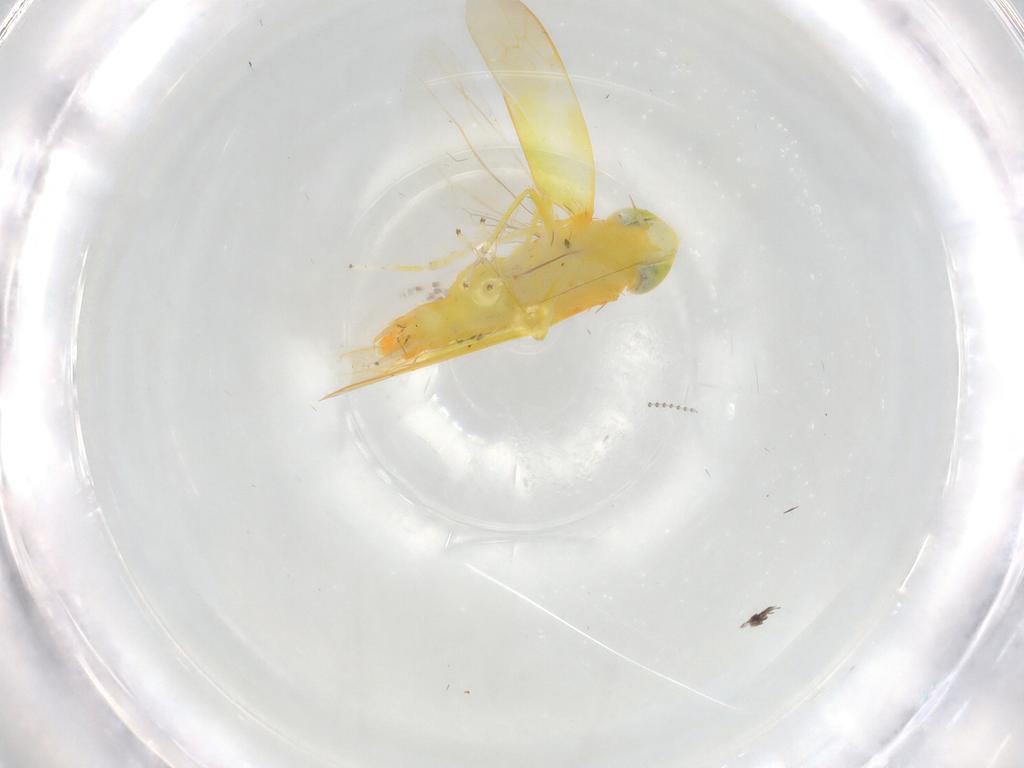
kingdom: Animalia
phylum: Arthropoda
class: Insecta
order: Hemiptera
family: Cicadellidae
